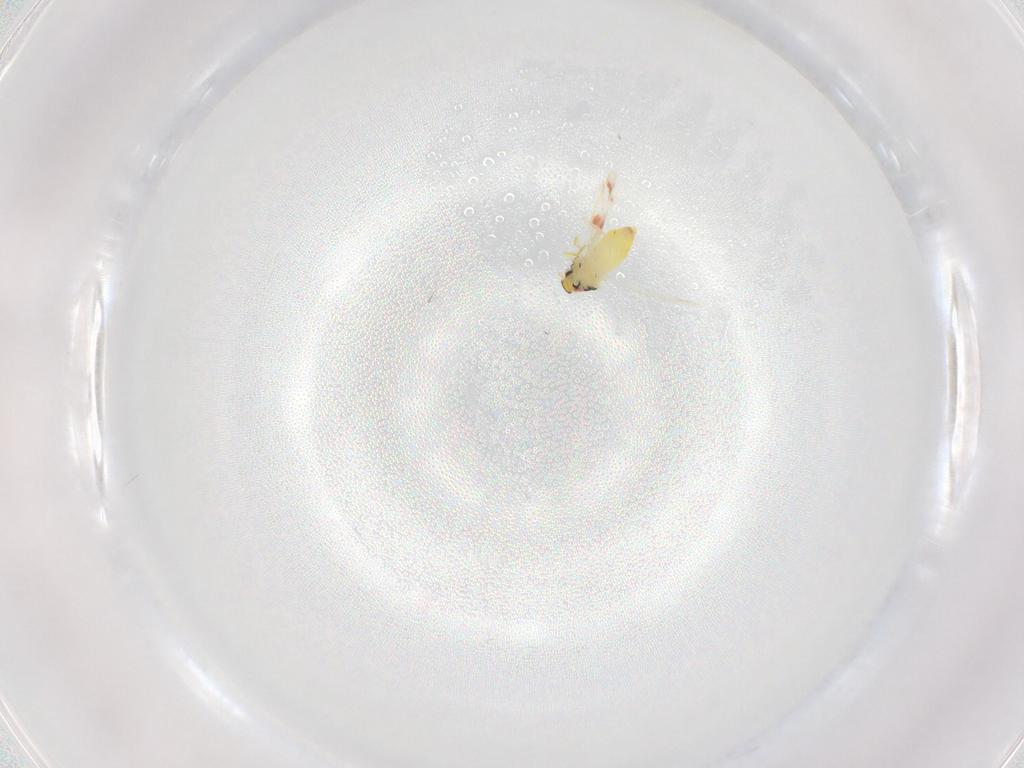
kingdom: Animalia
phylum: Arthropoda
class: Insecta
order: Hemiptera
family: Aleyrodidae
